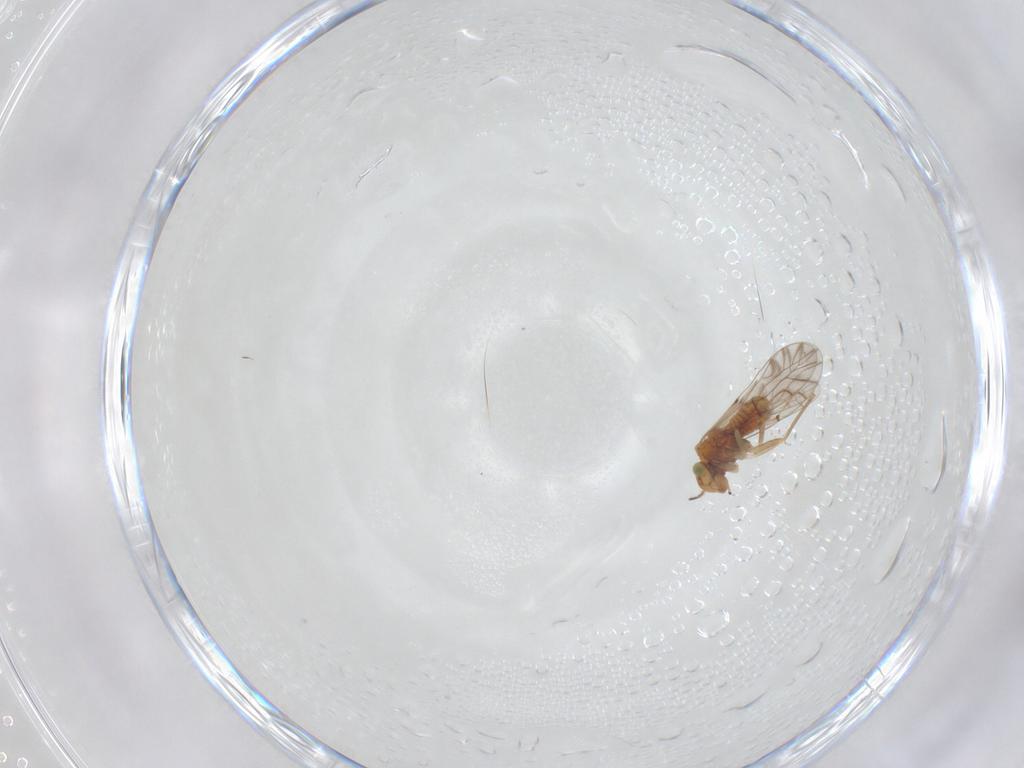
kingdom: Animalia
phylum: Arthropoda
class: Insecta
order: Psocodea
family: Lachesillidae
